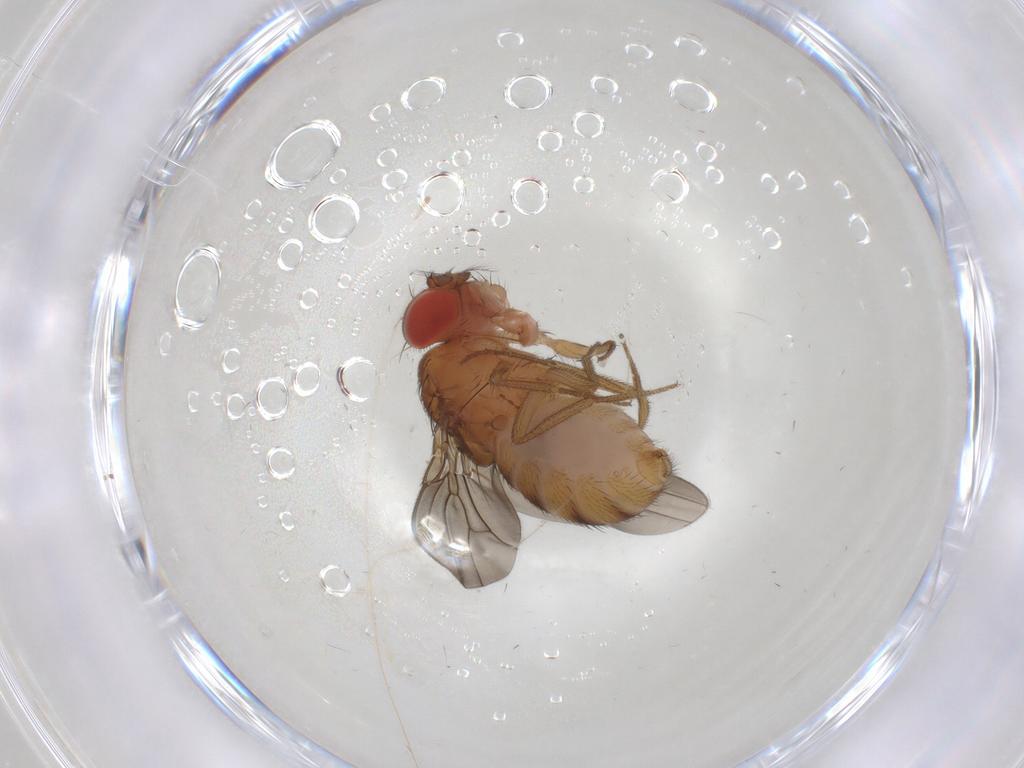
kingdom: Animalia
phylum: Arthropoda
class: Insecta
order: Diptera
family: Drosophilidae
